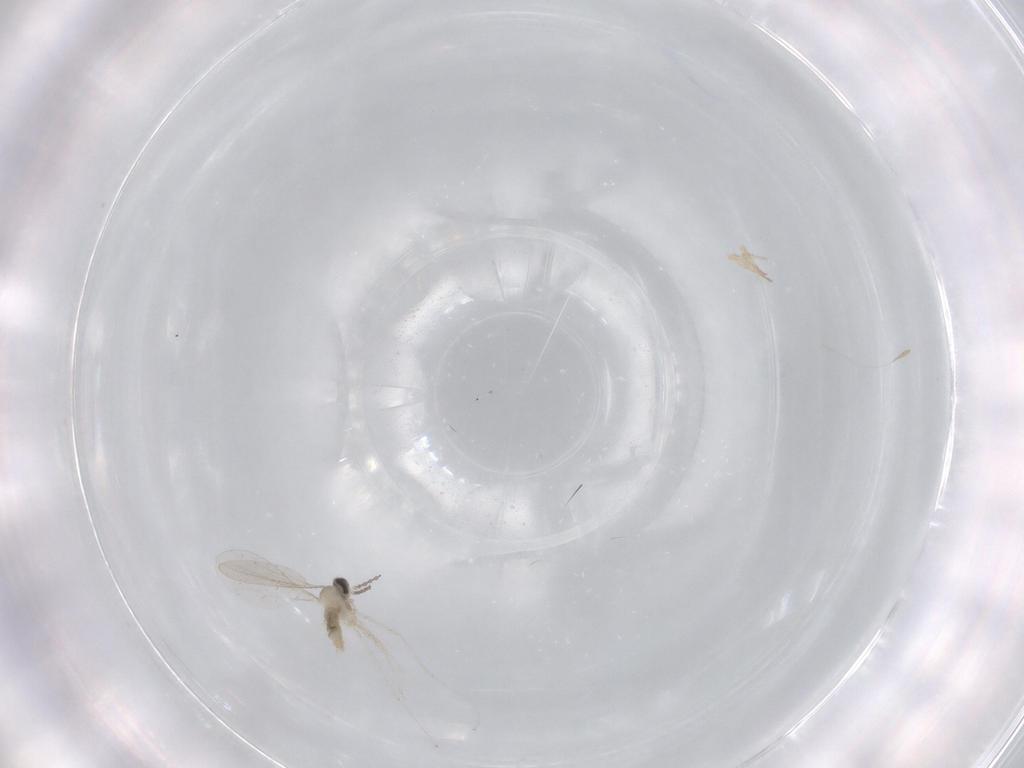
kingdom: Animalia
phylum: Arthropoda
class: Insecta
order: Diptera
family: Cecidomyiidae
